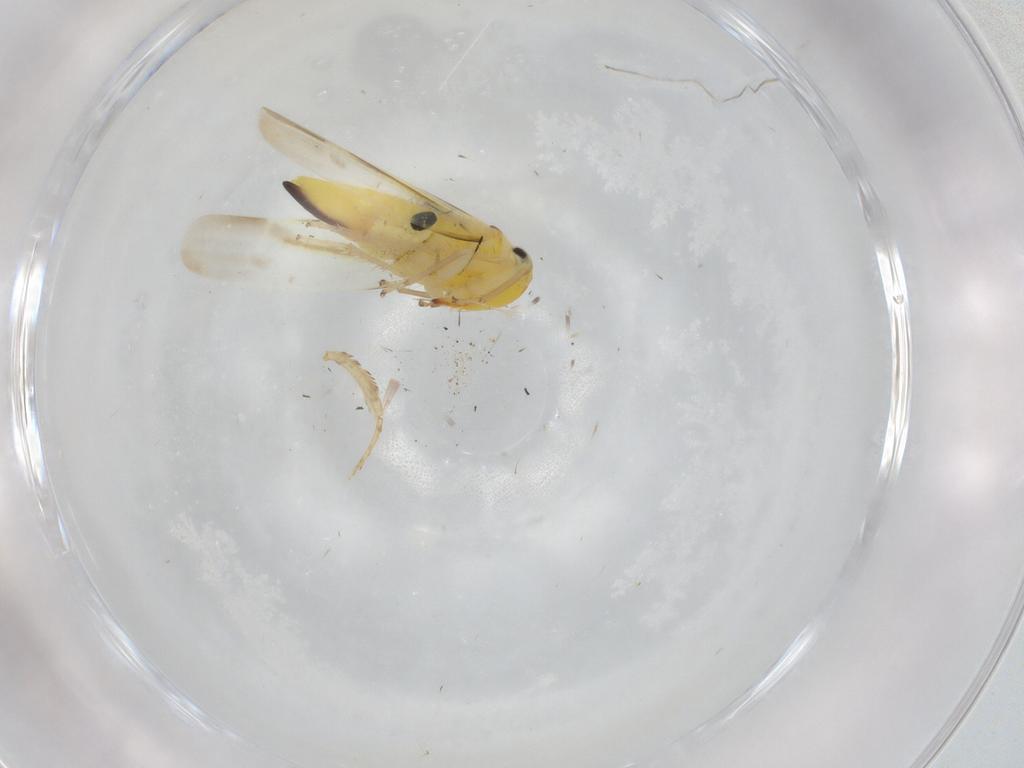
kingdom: Animalia
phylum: Arthropoda
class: Insecta
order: Hemiptera
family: Cicadellidae
